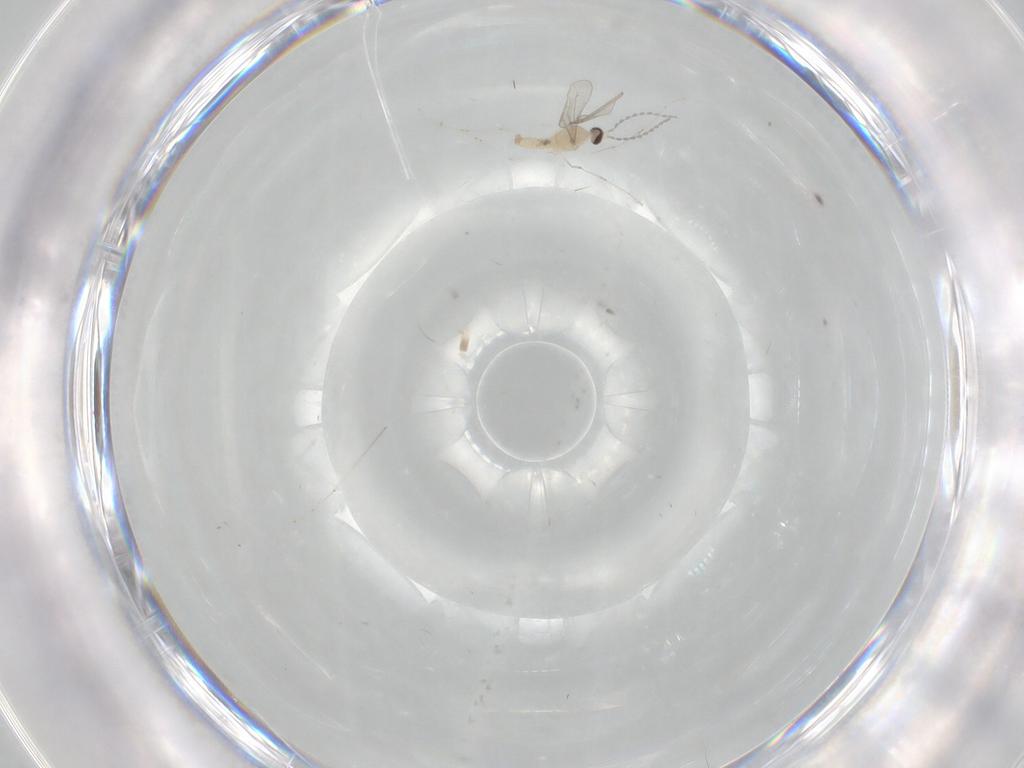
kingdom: Animalia
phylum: Arthropoda
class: Insecta
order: Diptera
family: Cecidomyiidae
